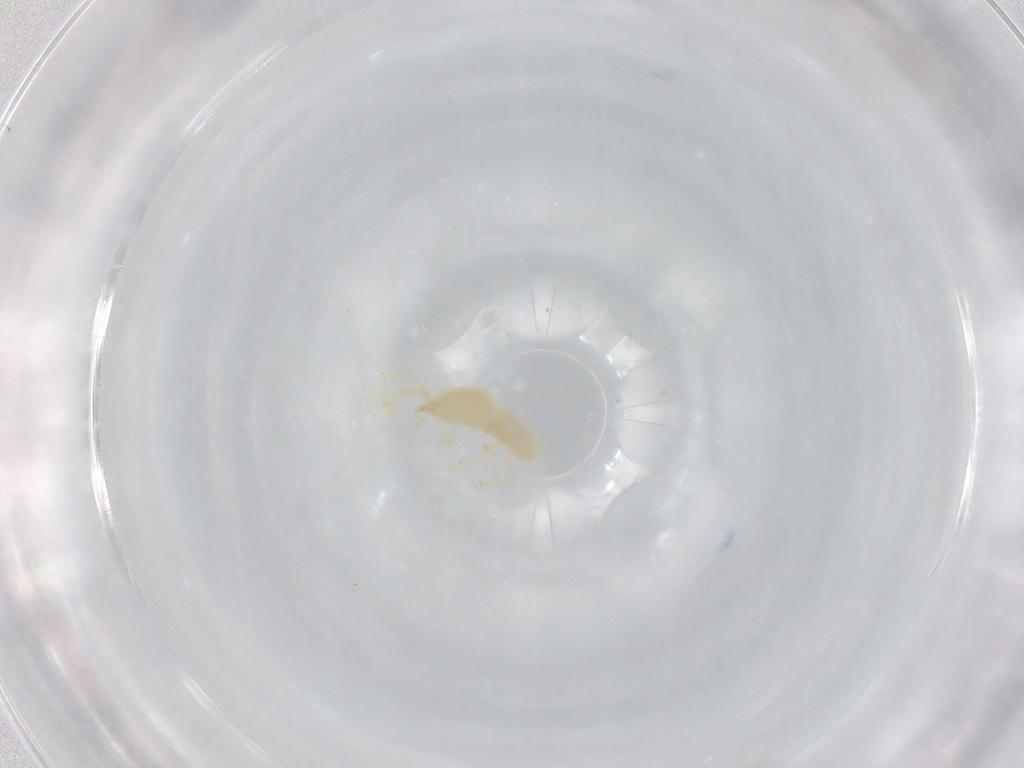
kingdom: Animalia
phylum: Arthropoda
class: Arachnida
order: Trombidiformes
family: Erythraeidae
